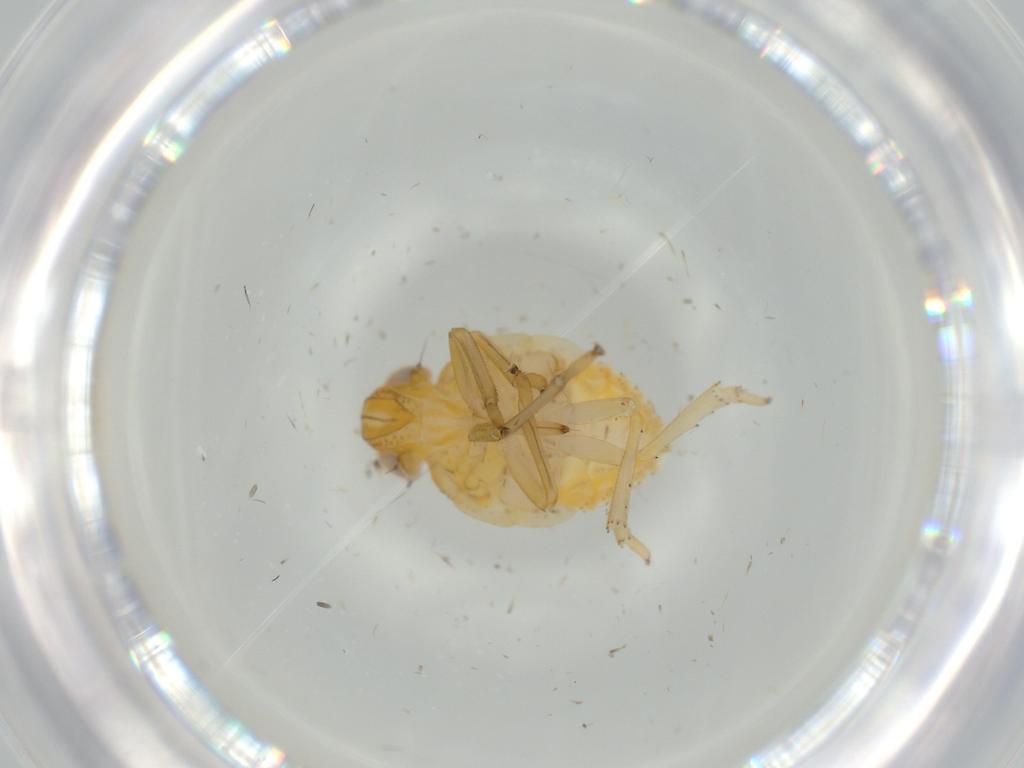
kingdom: Animalia
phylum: Arthropoda
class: Insecta
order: Hemiptera
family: Issidae
